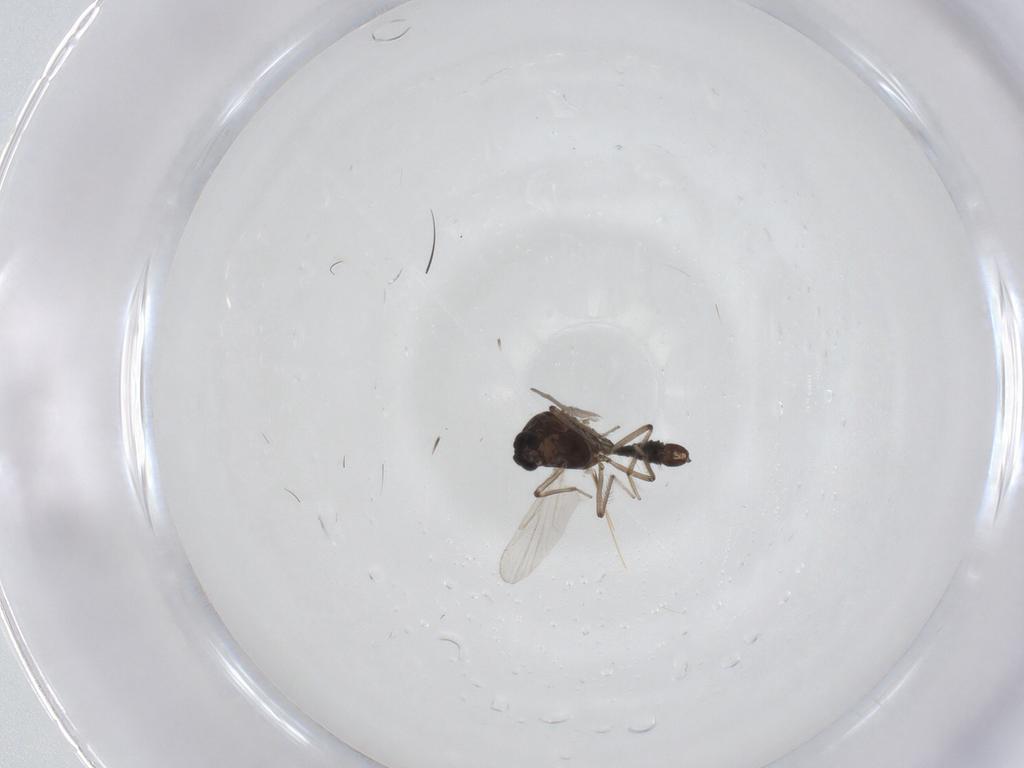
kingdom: Animalia
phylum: Arthropoda
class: Insecta
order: Diptera
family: Ceratopogonidae
